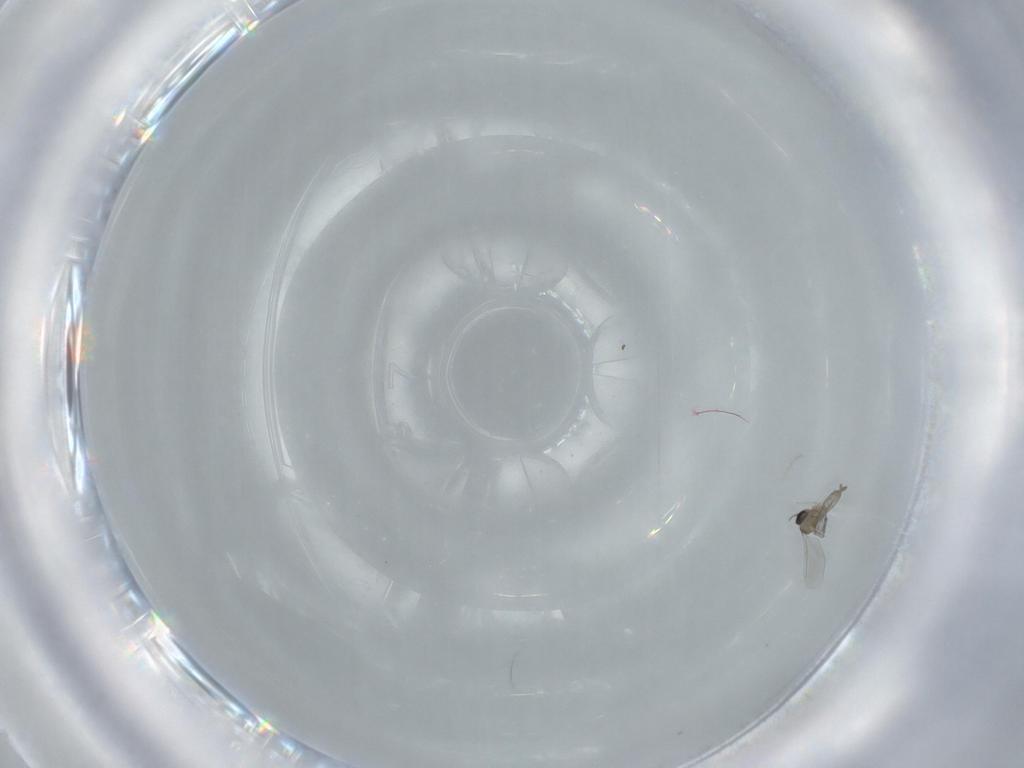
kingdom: Animalia
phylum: Arthropoda
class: Insecta
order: Diptera
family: Cecidomyiidae
